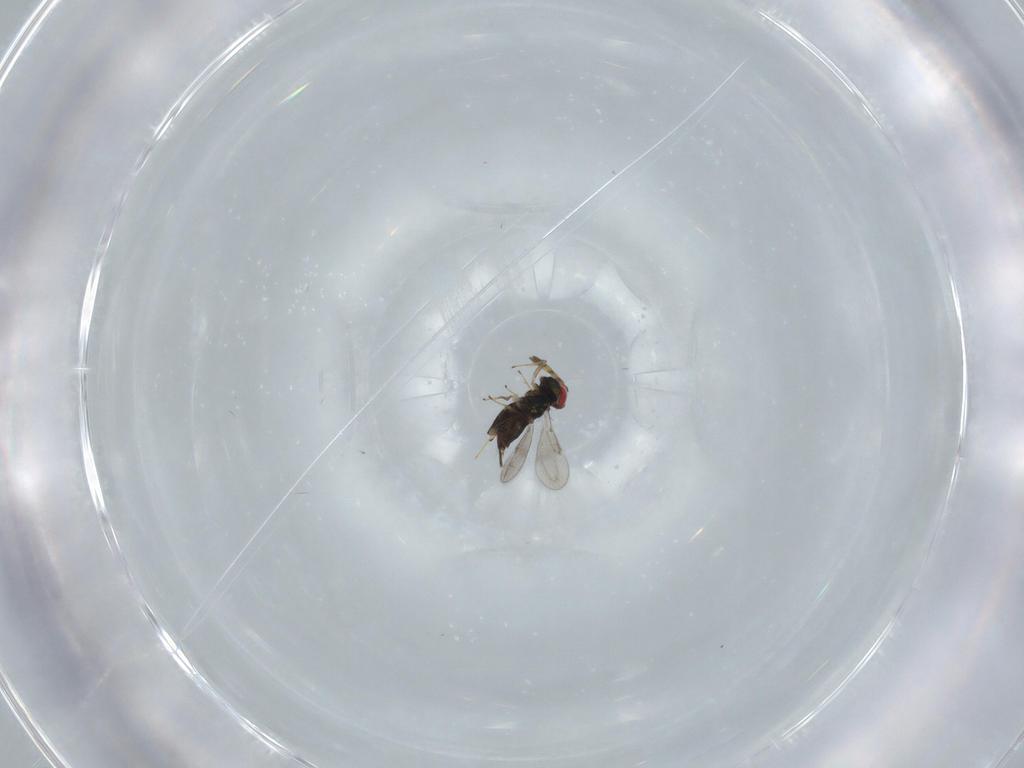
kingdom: Animalia
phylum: Arthropoda
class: Insecta
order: Hymenoptera
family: Azotidae
